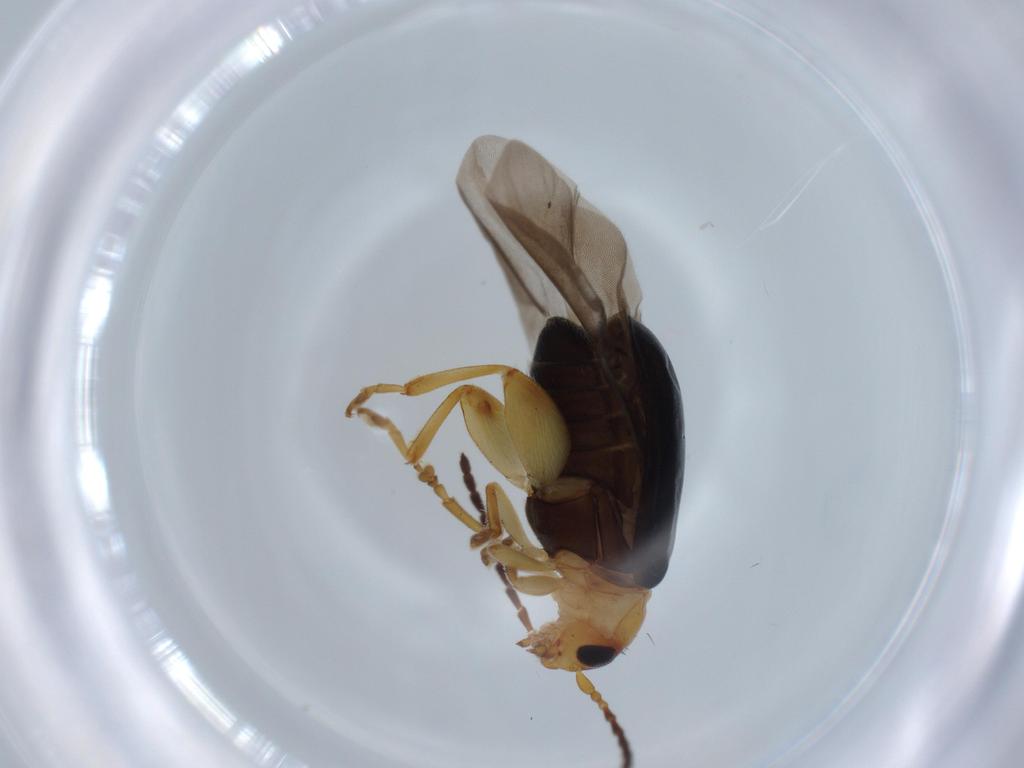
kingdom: Animalia
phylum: Arthropoda
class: Insecta
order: Coleoptera
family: Chrysomelidae
